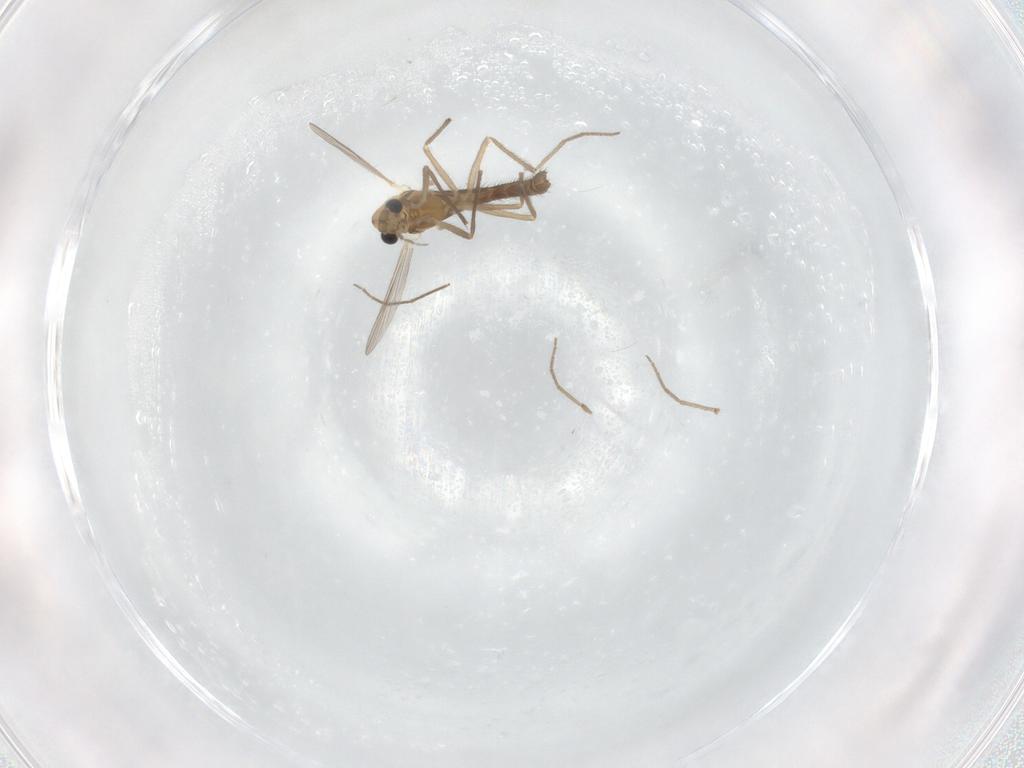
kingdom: Animalia
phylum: Arthropoda
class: Insecta
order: Diptera
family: Chironomidae
